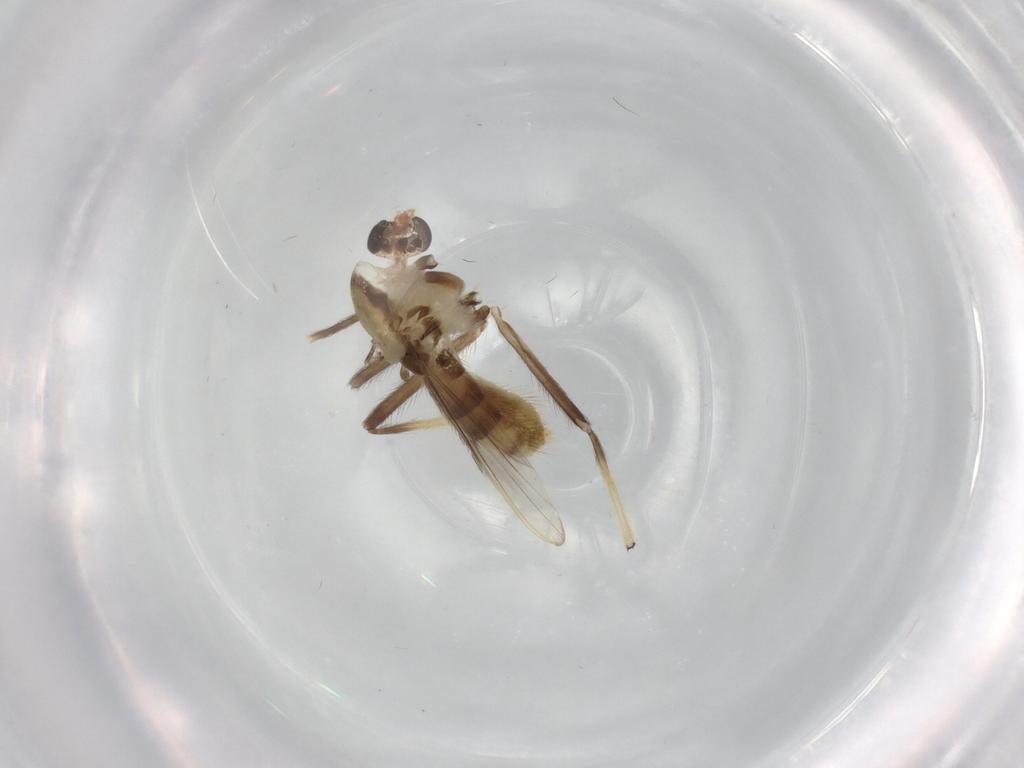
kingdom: Animalia
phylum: Arthropoda
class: Insecta
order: Diptera
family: Chironomidae
